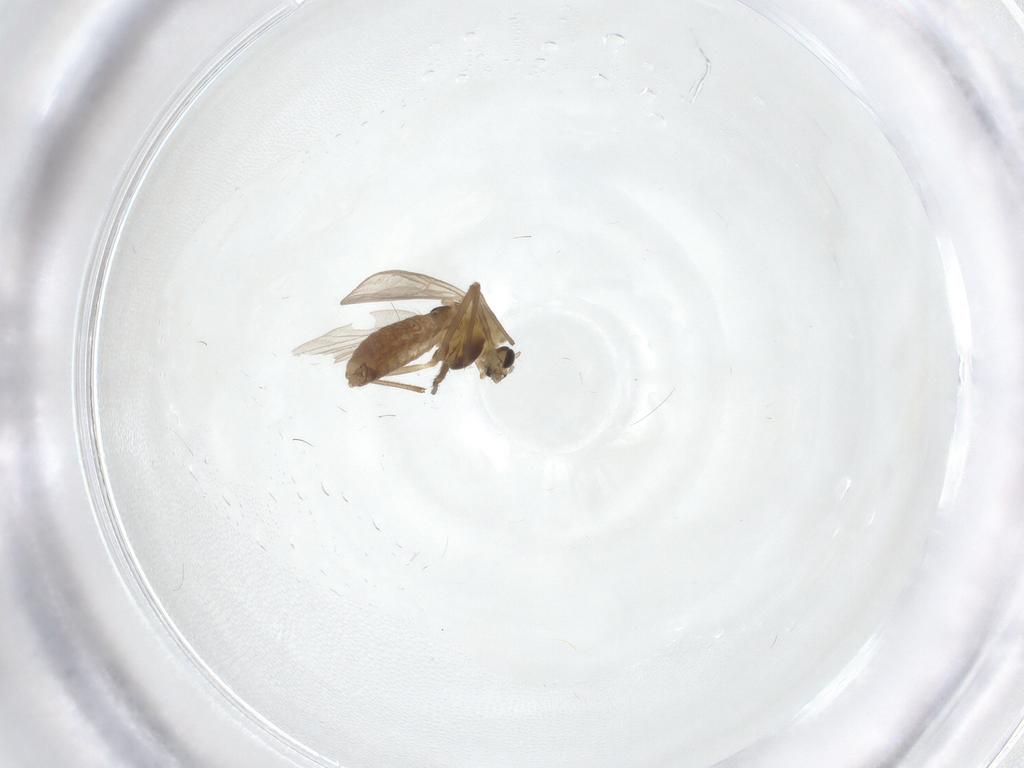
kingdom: Animalia
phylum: Arthropoda
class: Insecta
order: Diptera
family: Chironomidae
